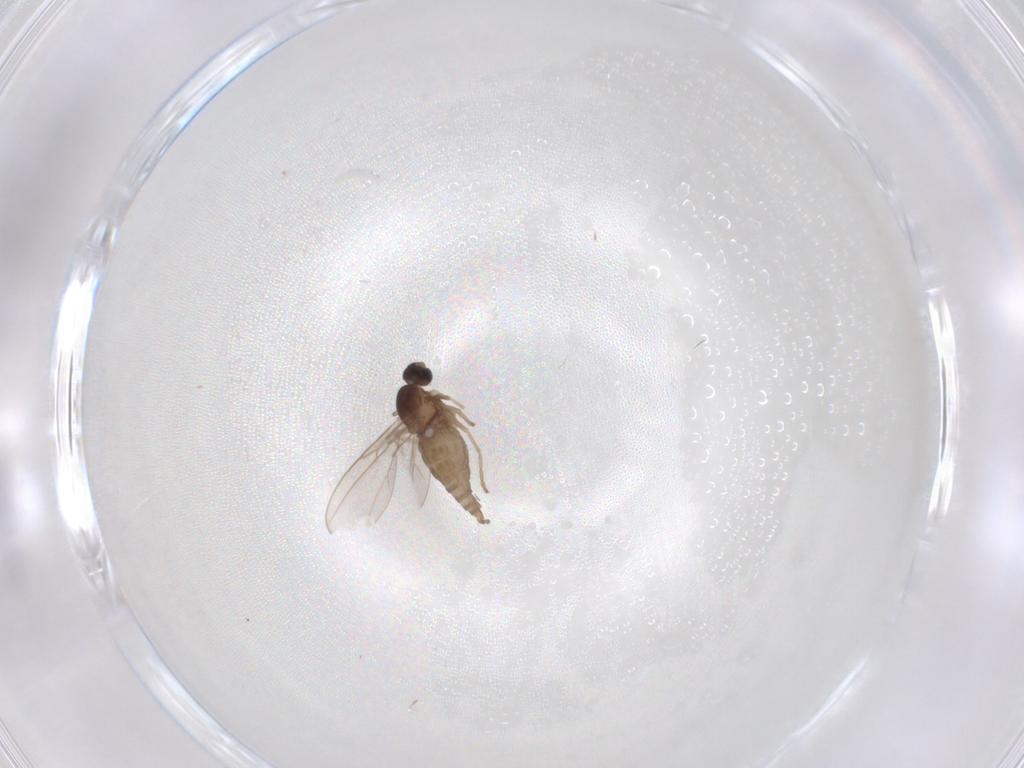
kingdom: Animalia
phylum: Arthropoda
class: Insecta
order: Diptera
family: Cecidomyiidae
